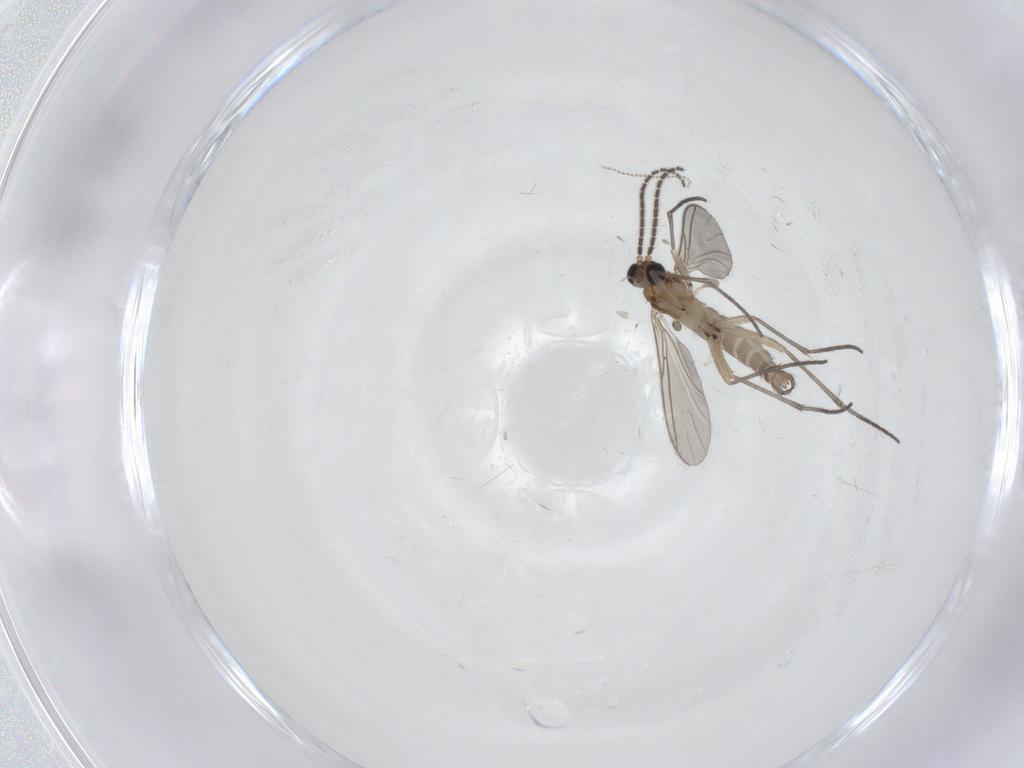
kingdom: Animalia
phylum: Arthropoda
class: Insecta
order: Diptera
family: Sciaridae
